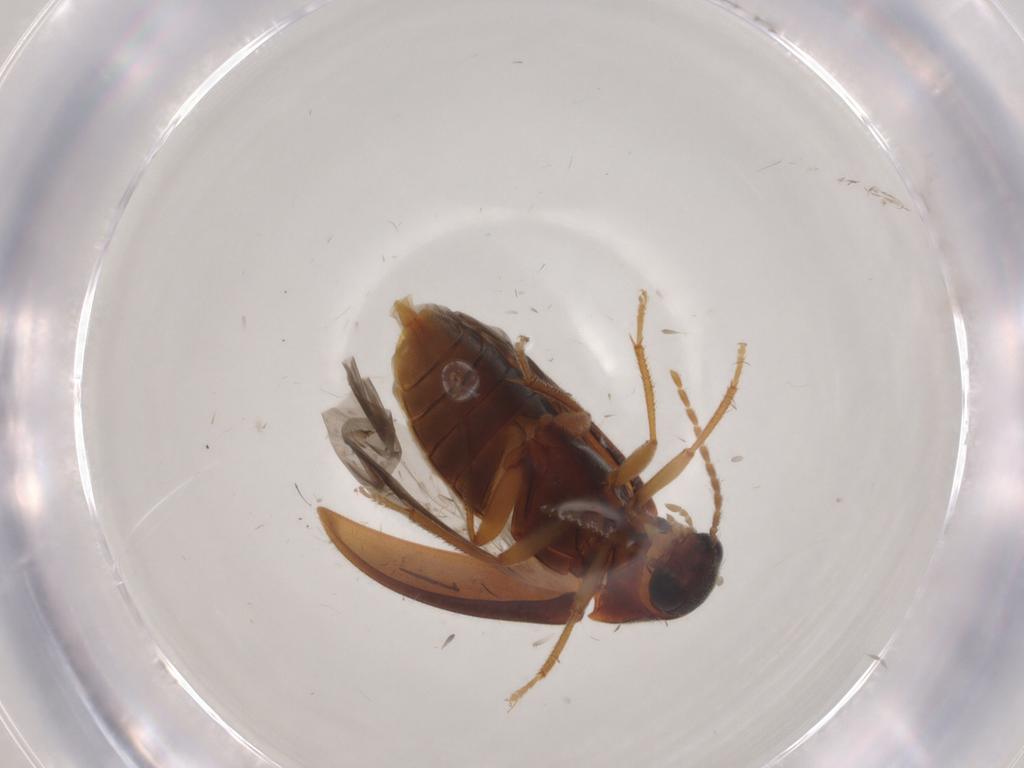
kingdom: Animalia
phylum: Arthropoda
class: Insecta
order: Coleoptera
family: Ptilodactylidae
